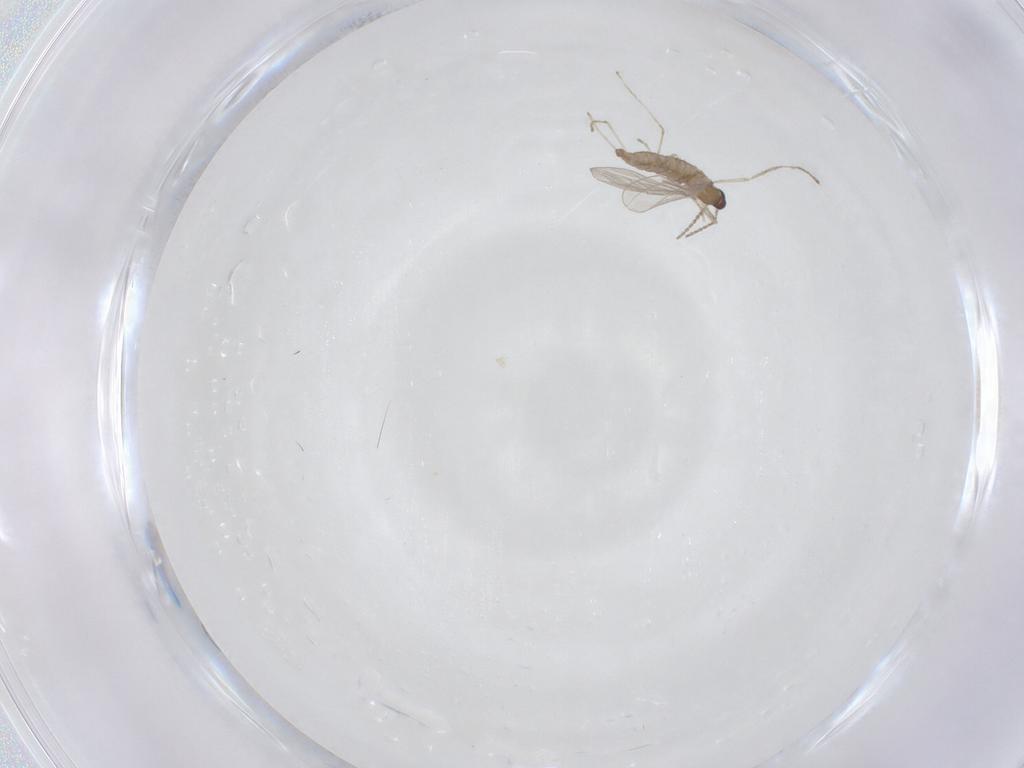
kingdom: Animalia
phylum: Arthropoda
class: Insecta
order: Diptera
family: Cecidomyiidae
